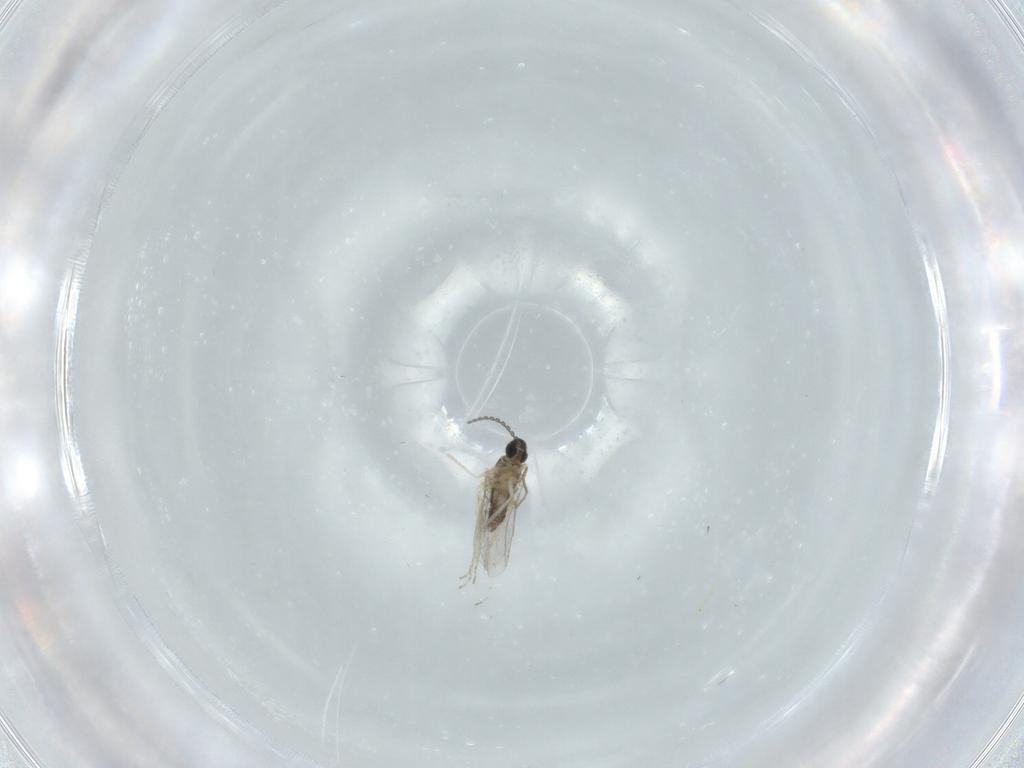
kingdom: Animalia
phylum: Arthropoda
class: Insecta
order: Diptera
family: Cecidomyiidae
